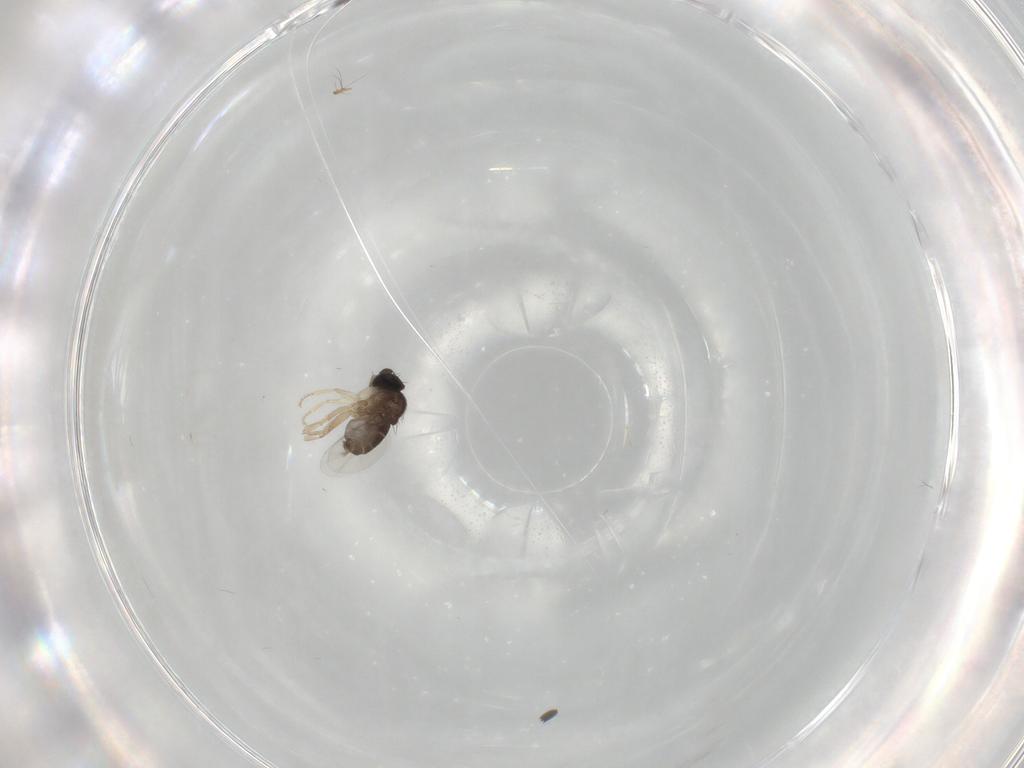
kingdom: Animalia
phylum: Arthropoda
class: Insecta
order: Diptera
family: Phoridae
